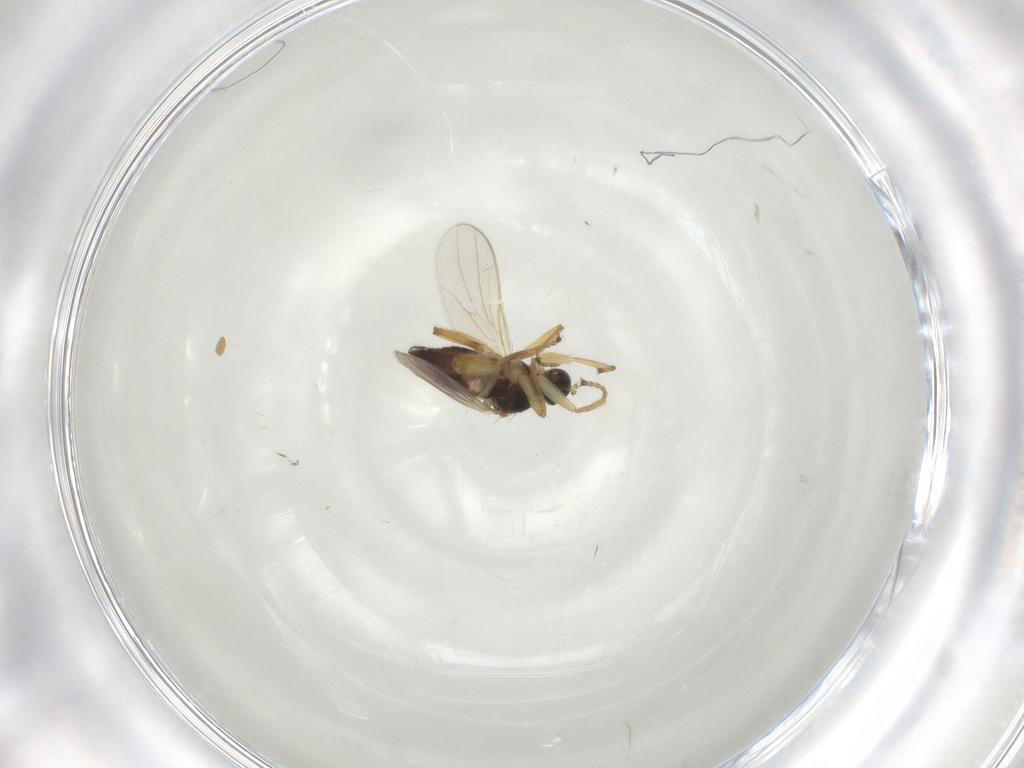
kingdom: Animalia
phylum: Arthropoda
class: Insecta
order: Diptera
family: Hybotidae
